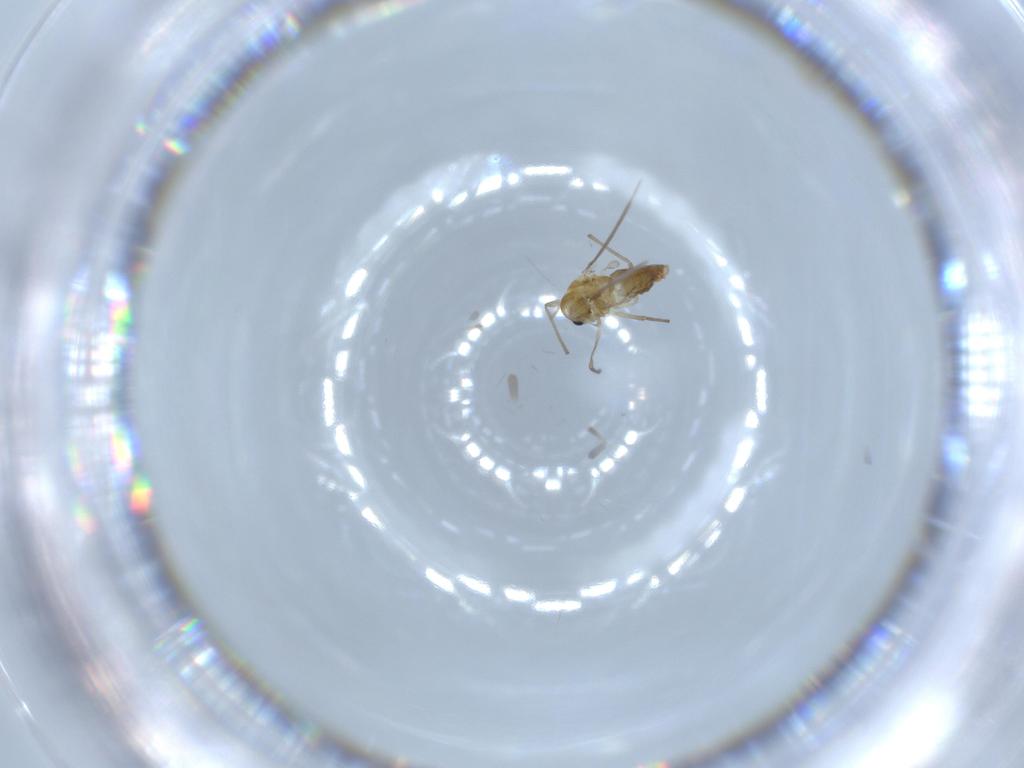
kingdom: Animalia
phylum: Arthropoda
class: Insecta
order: Diptera
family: Chironomidae
